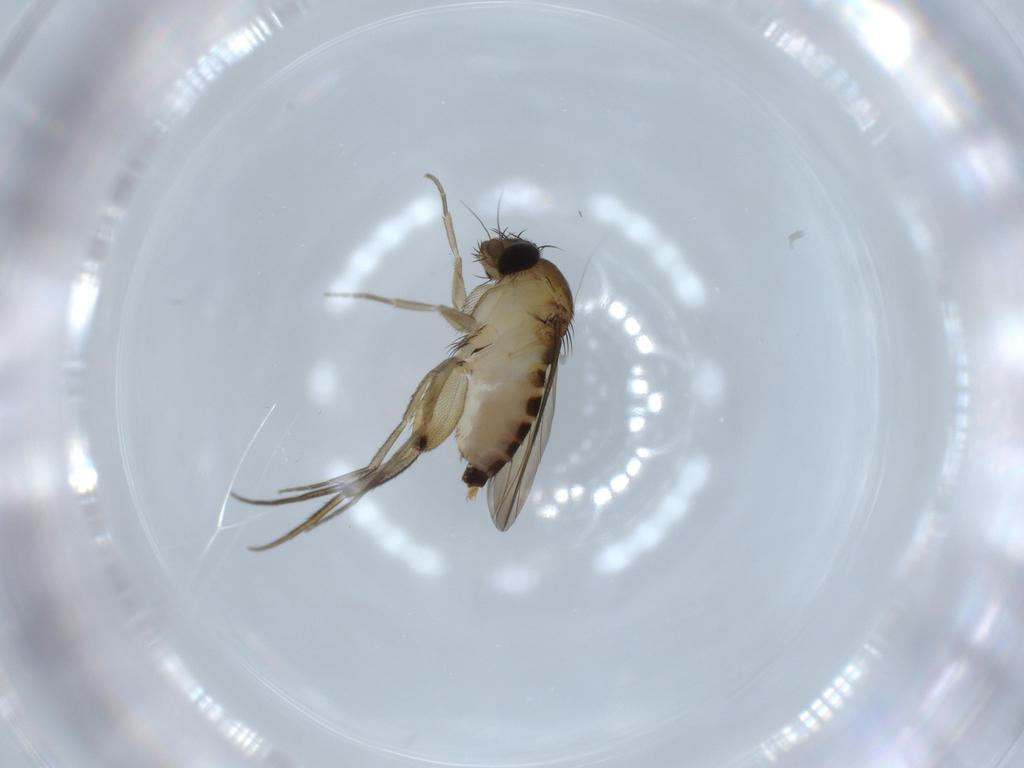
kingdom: Animalia
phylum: Arthropoda
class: Insecta
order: Diptera
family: Phoridae
